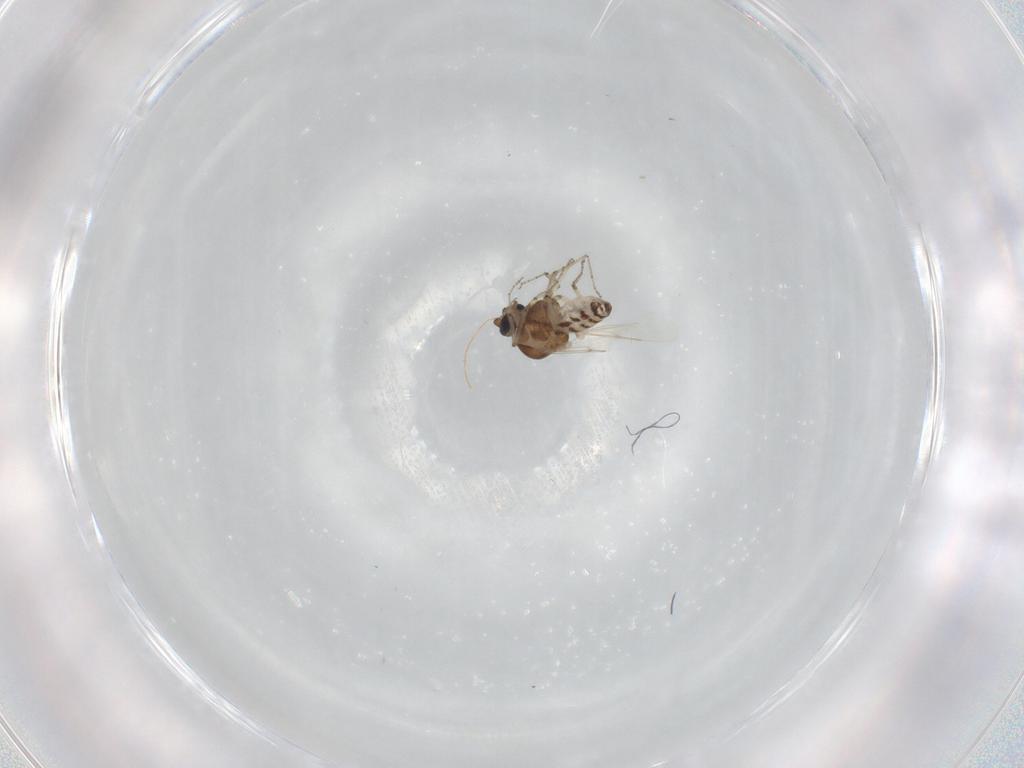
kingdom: Animalia
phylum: Arthropoda
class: Insecta
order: Diptera
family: Ceratopogonidae
